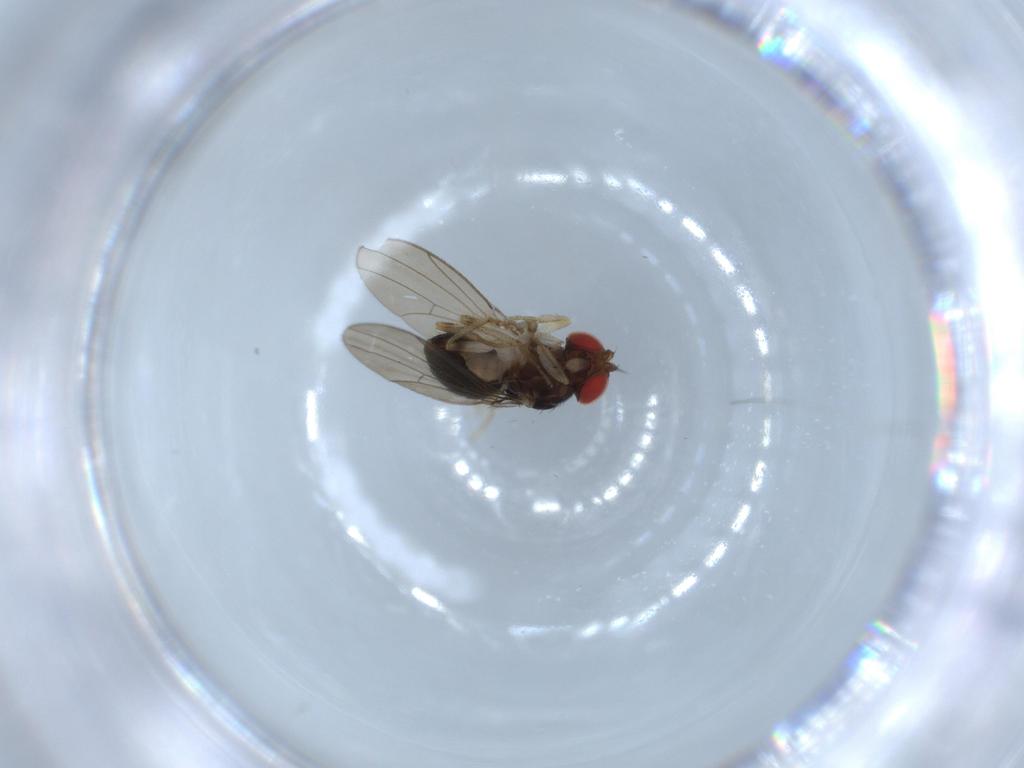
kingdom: Animalia
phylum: Arthropoda
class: Insecta
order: Diptera
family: Drosophilidae
